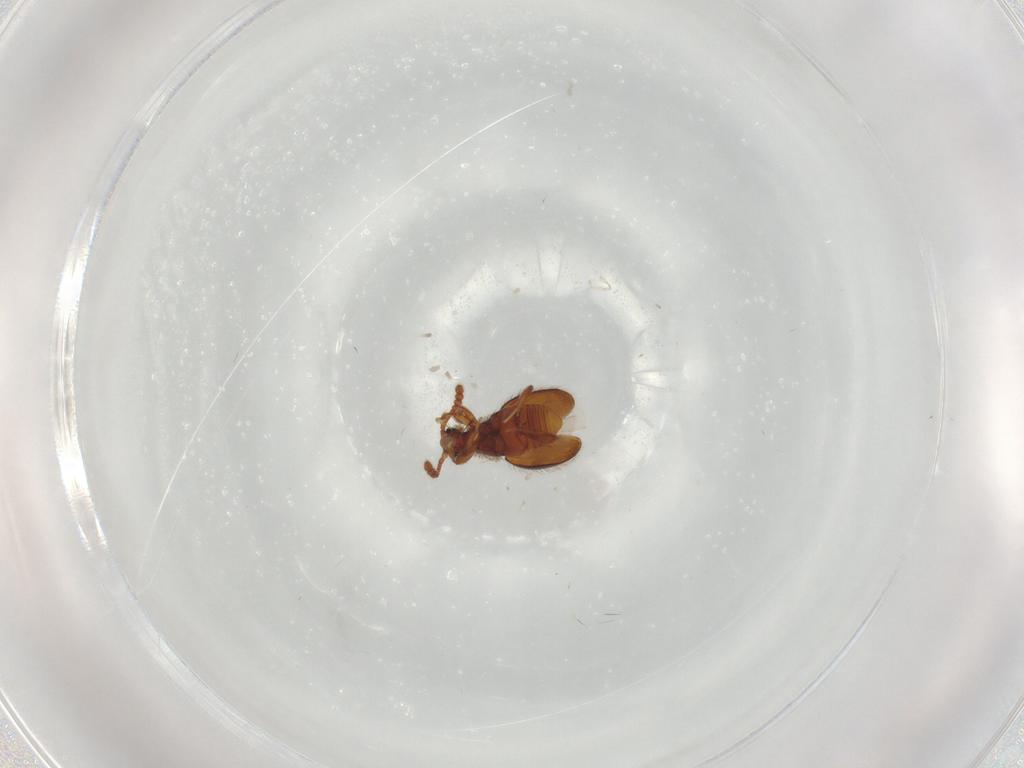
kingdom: Animalia
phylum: Arthropoda
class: Insecta
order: Coleoptera
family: Staphylinidae
